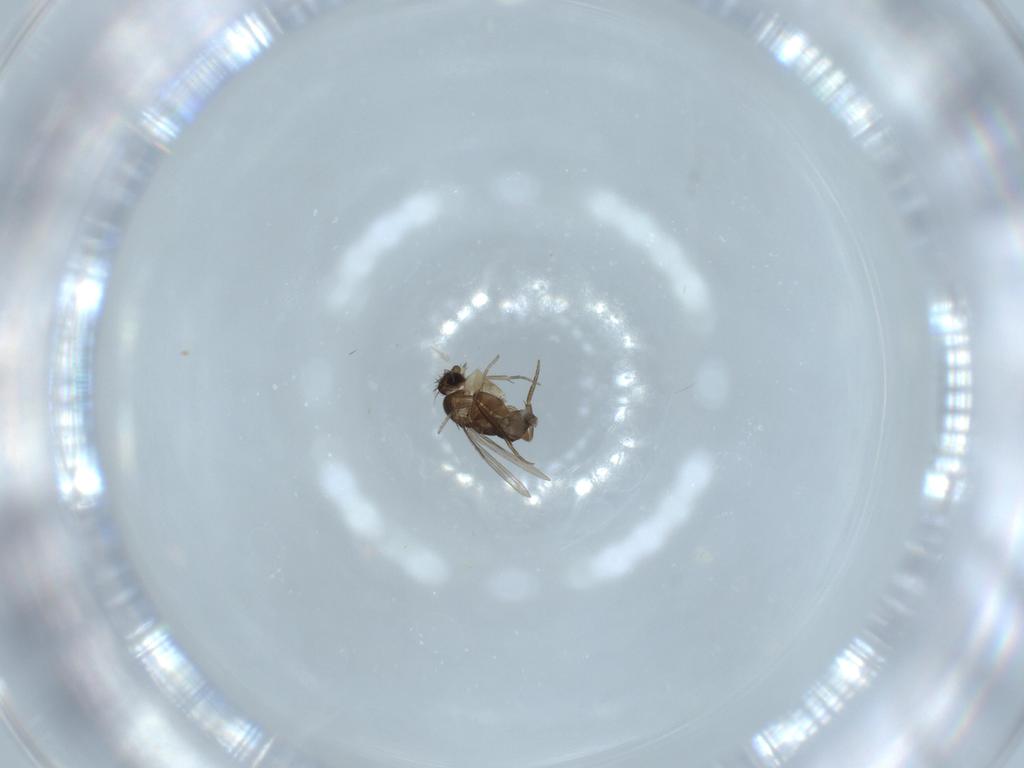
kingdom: Animalia
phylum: Arthropoda
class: Insecta
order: Diptera
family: Phoridae
